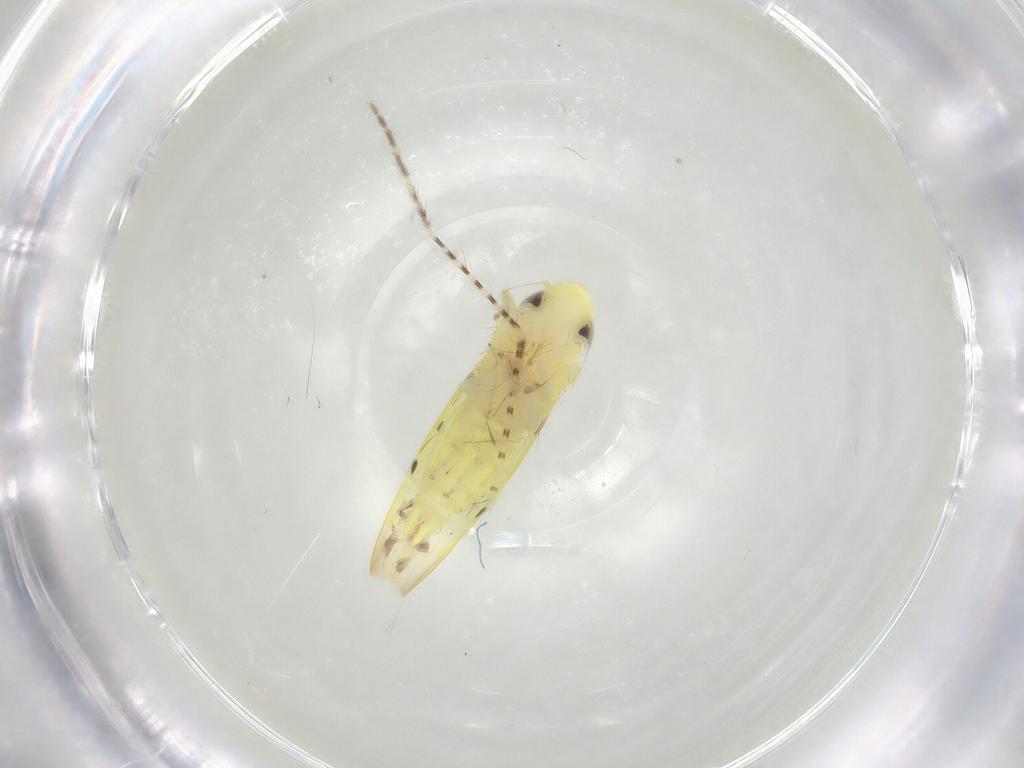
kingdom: Animalia
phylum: Arthropoda
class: Insecta
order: Hemiptera
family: Cicadellidae
